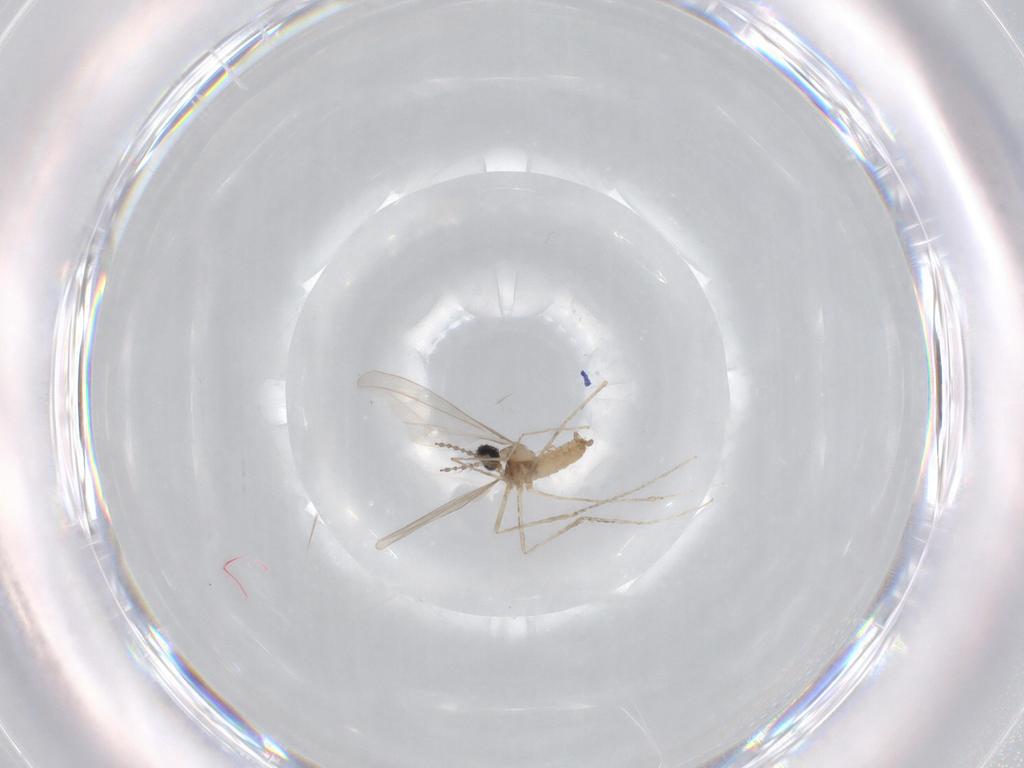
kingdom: Animalia
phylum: Arthropoda
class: Insecta
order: Diptera
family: Cecidomyiidae
